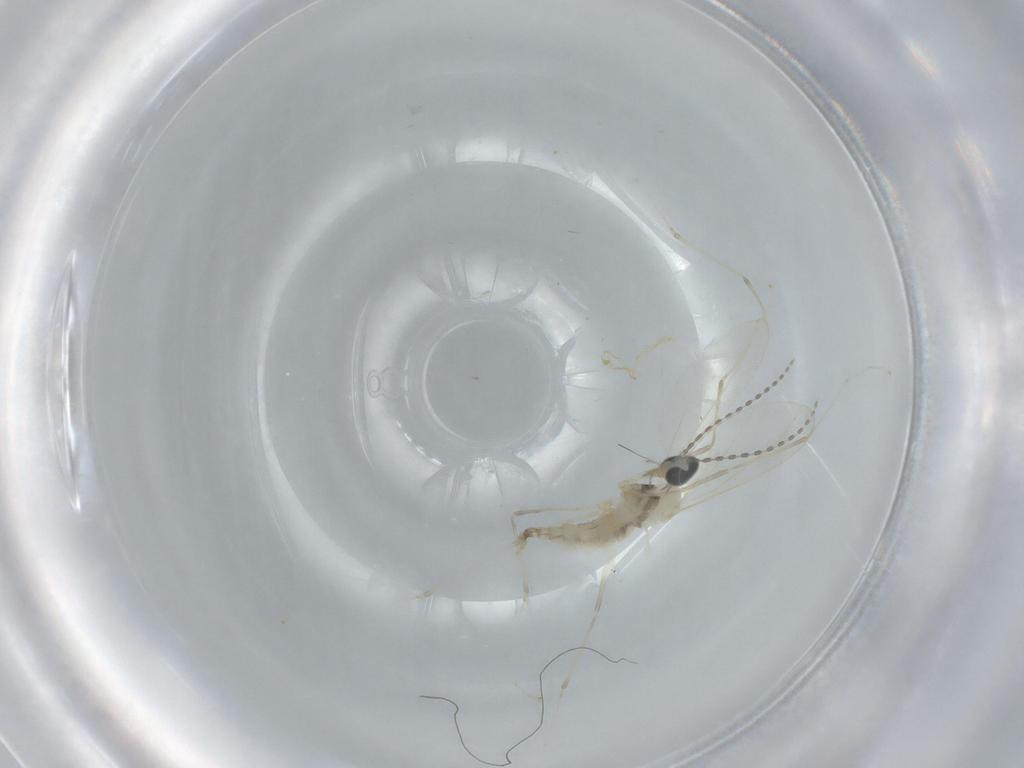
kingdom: Animalia
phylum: Arthropoda
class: Insecta
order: Diptera
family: Cecidomyiidae
